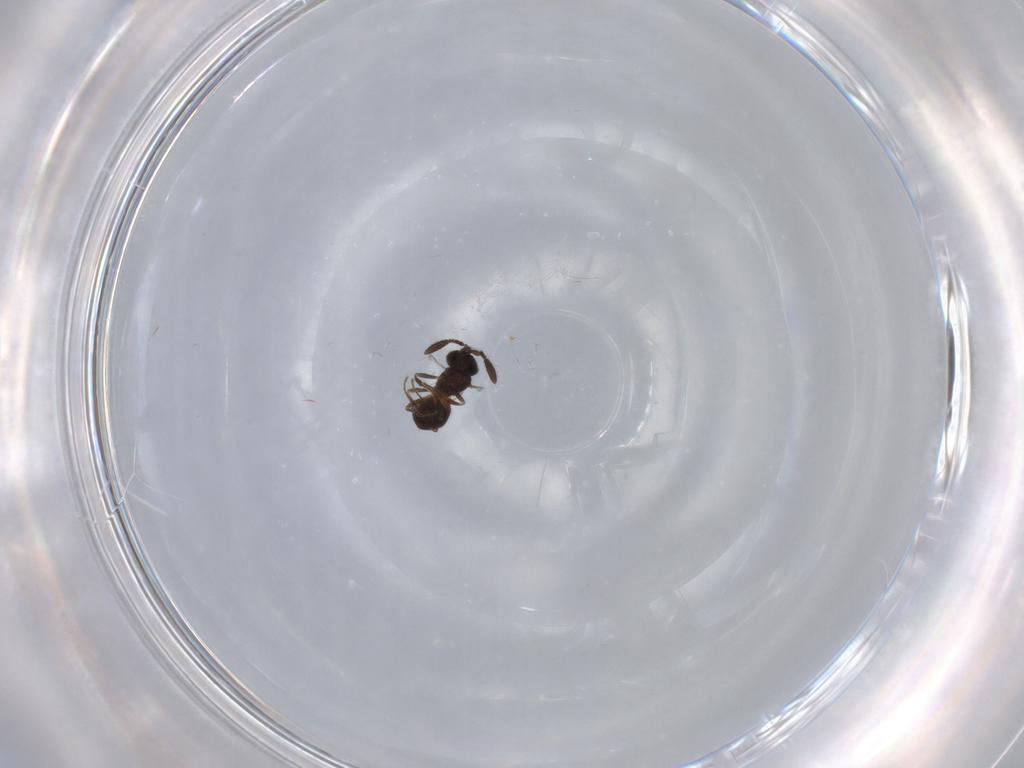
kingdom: Animalia
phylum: Arthropoda
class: Insecta
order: Hymenoptera
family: Scelionidae
